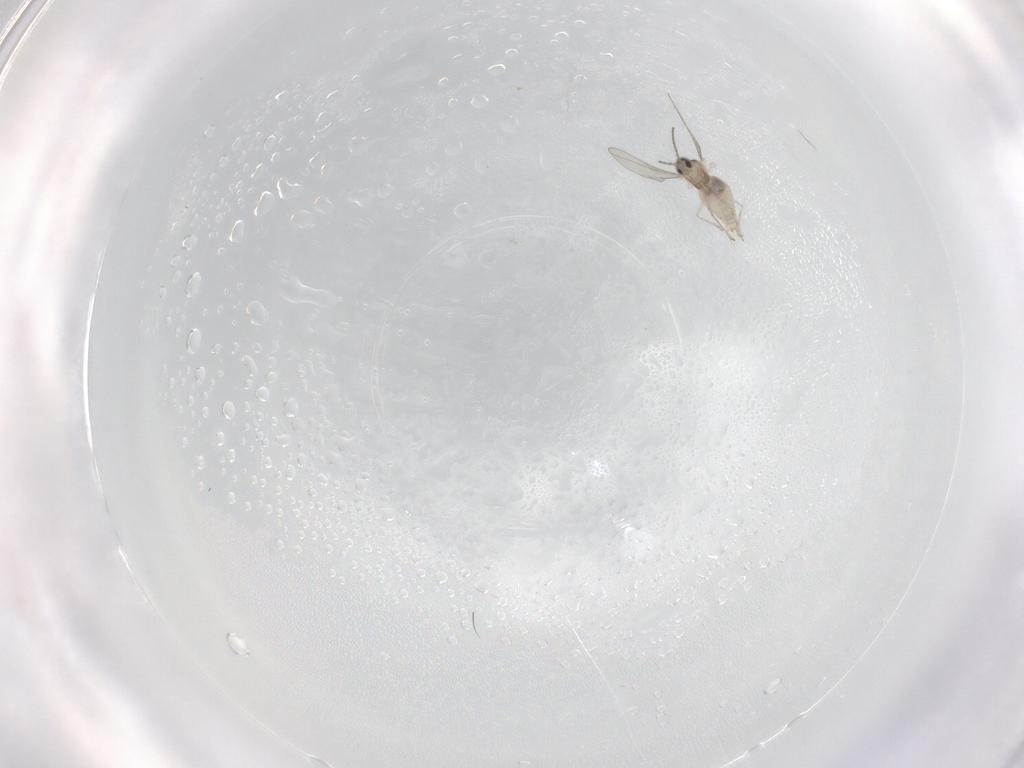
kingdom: Animalia
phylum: Arthropoda
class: Insecta
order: Diptera
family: Cecidomyiidae
